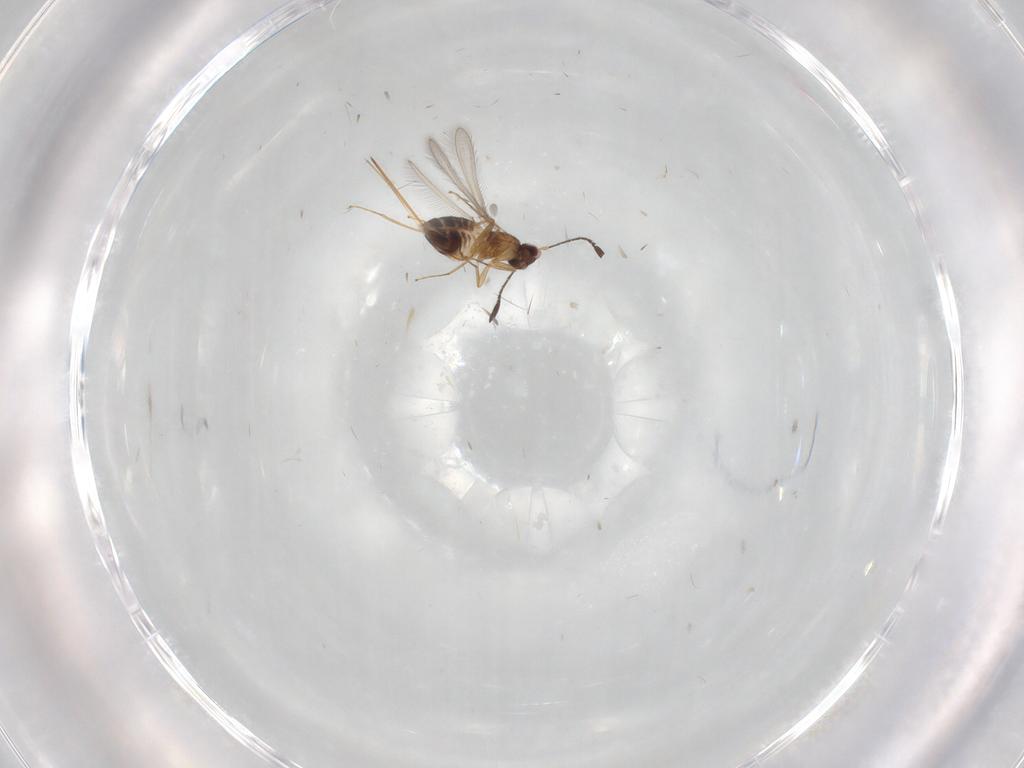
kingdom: Animalia
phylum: Arthropoda
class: Insecta
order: Hymenoptera
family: Mymaridae
